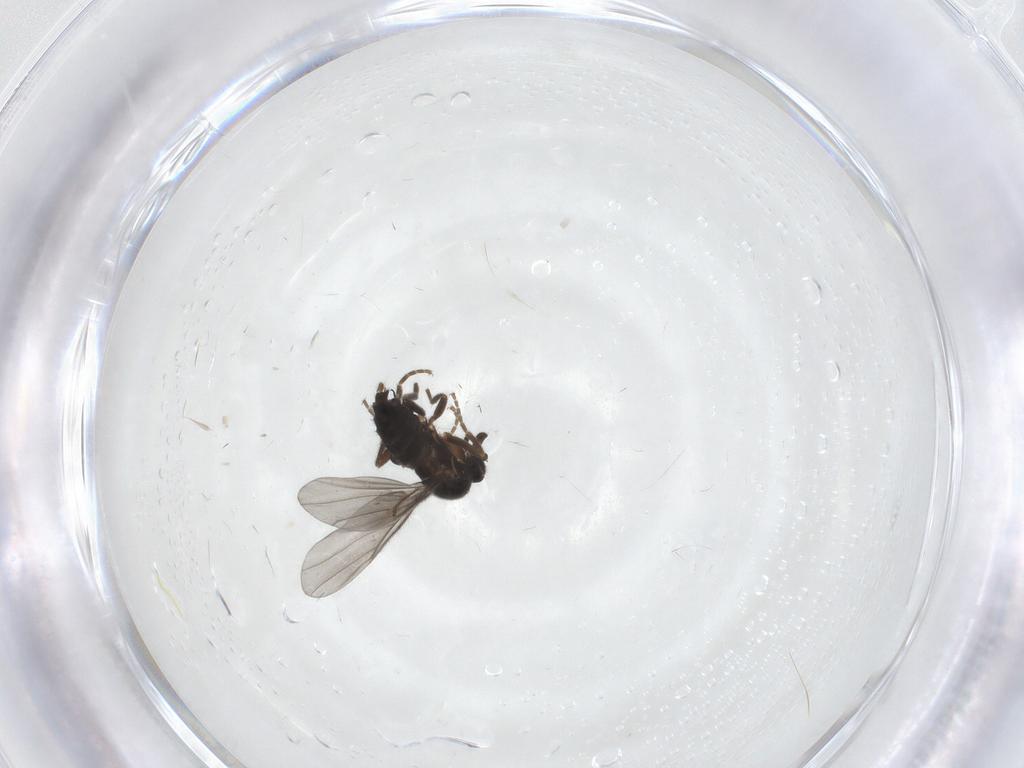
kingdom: Animalia
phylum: Arthropoda
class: Insecta
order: Diptera
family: Muscidae
